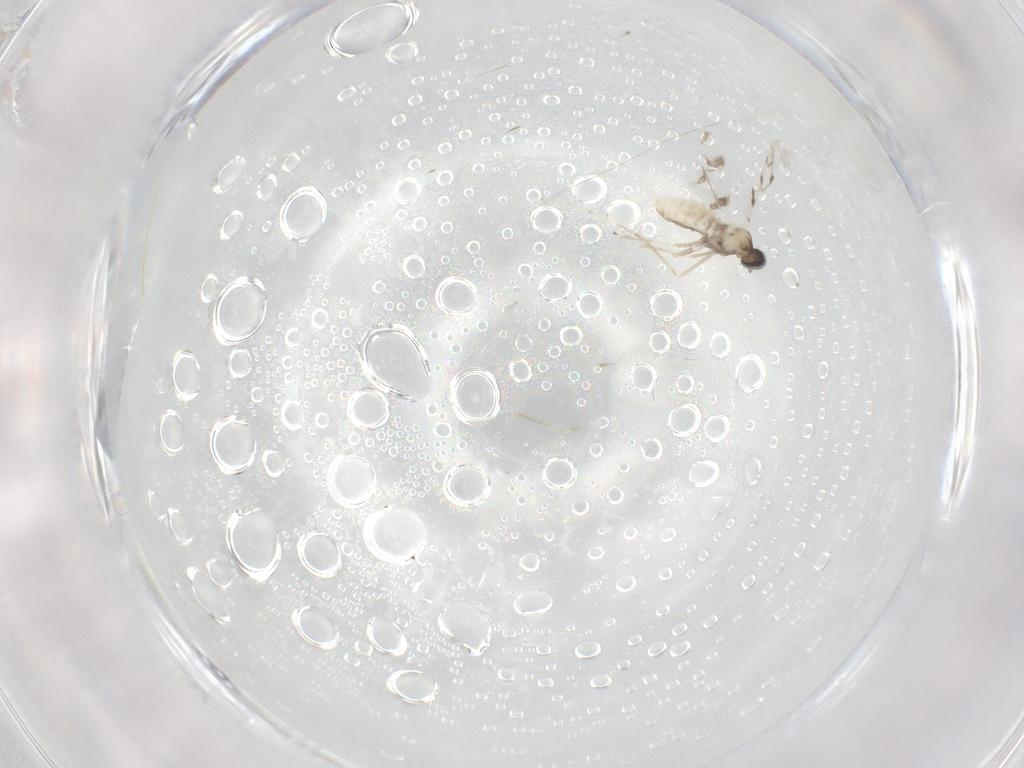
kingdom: Animalia
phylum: Arthropoda
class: Insecta
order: Diptera
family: Cecidomyiidae
